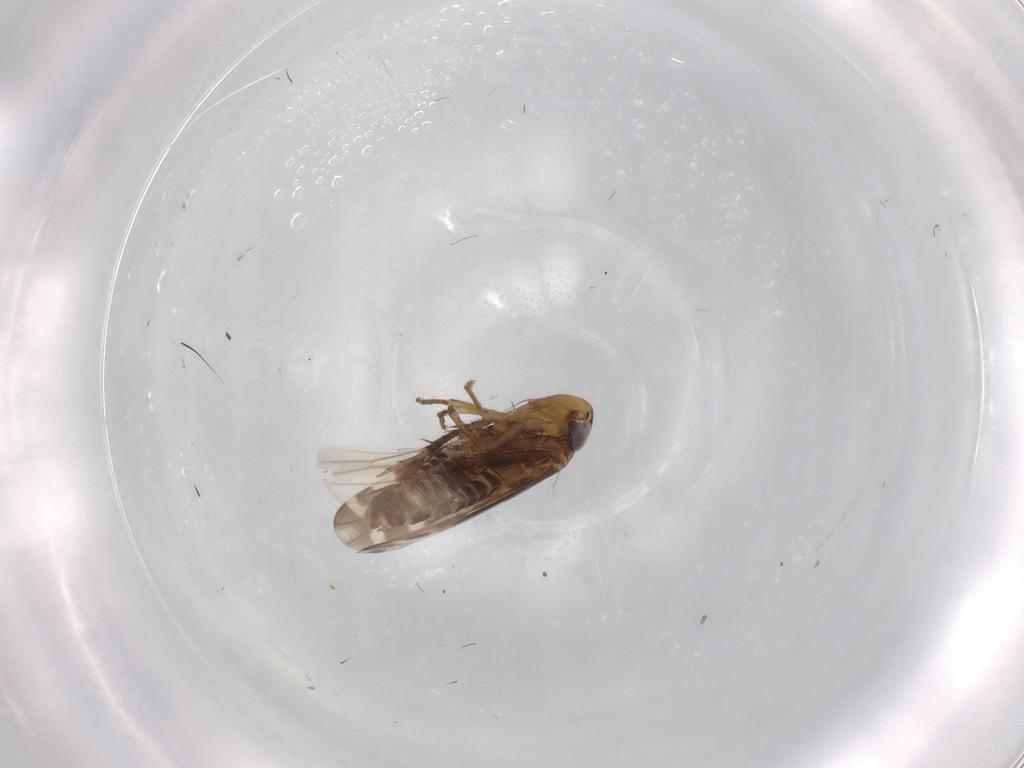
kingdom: Animalia
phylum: Arthropoda
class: Insecta
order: Hemiptera
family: Cicadellidae
